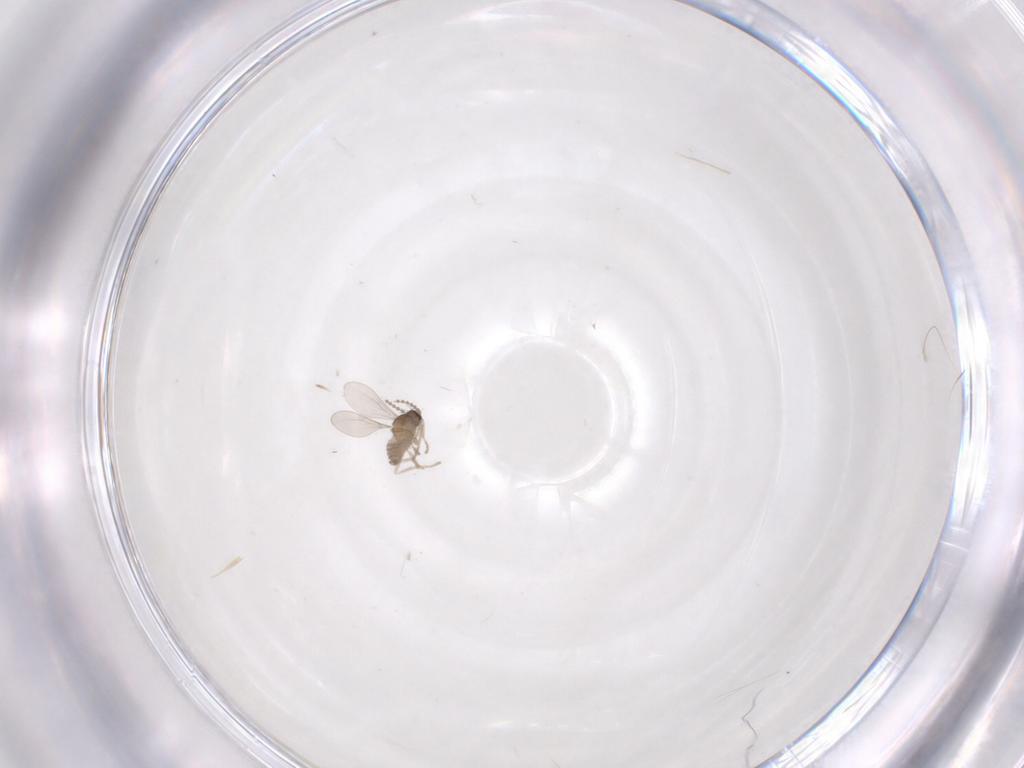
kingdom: Animalia
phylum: Arthropoda
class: Insecta
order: Diptera
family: Cecidomyiidae
